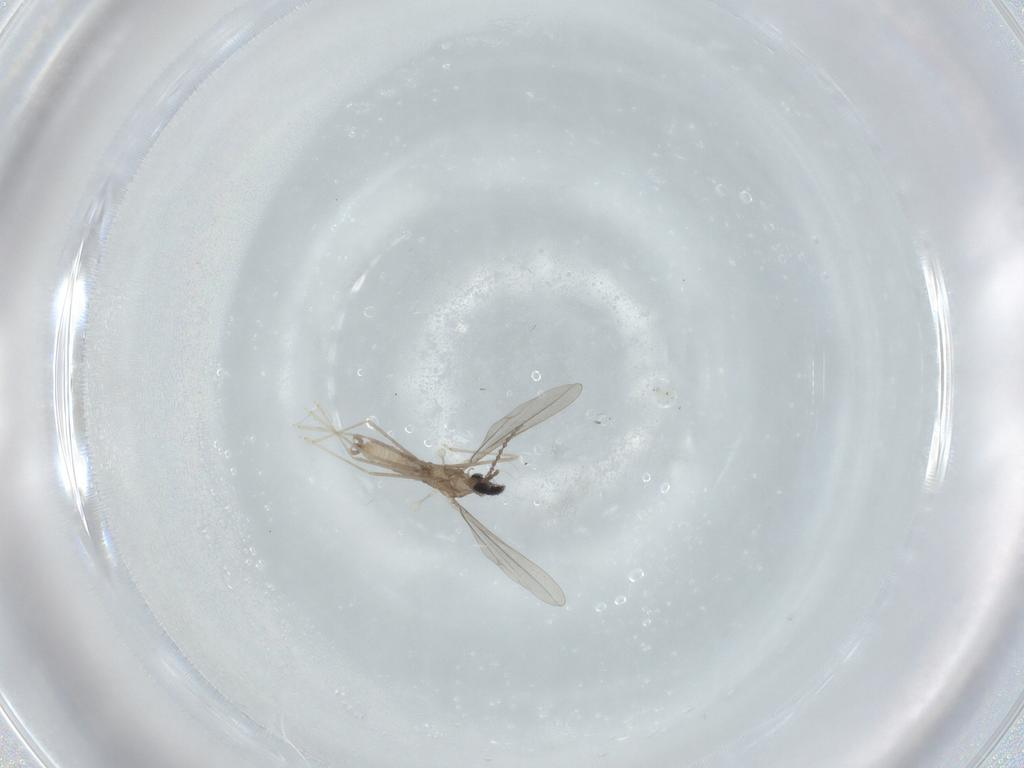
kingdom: Animalia
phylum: Arthropoda
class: Insecta
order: Diptera
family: Cecidomyiidae
